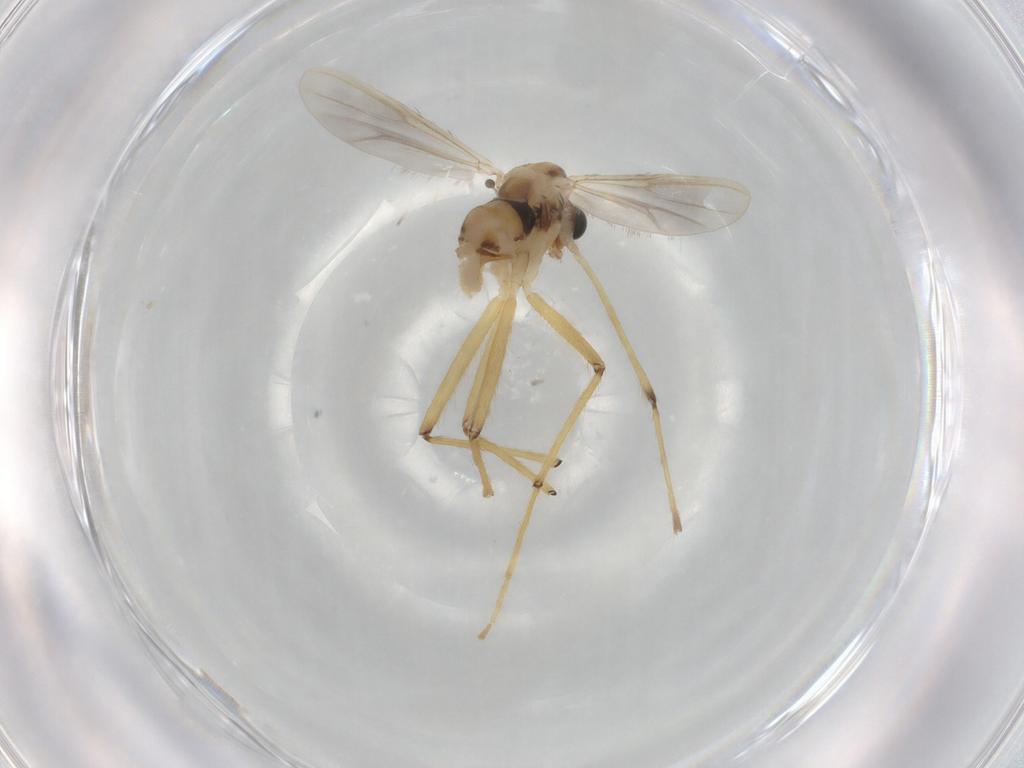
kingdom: Animalia
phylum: Arthropoda
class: Insecta
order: Diptera
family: Chironomidae
